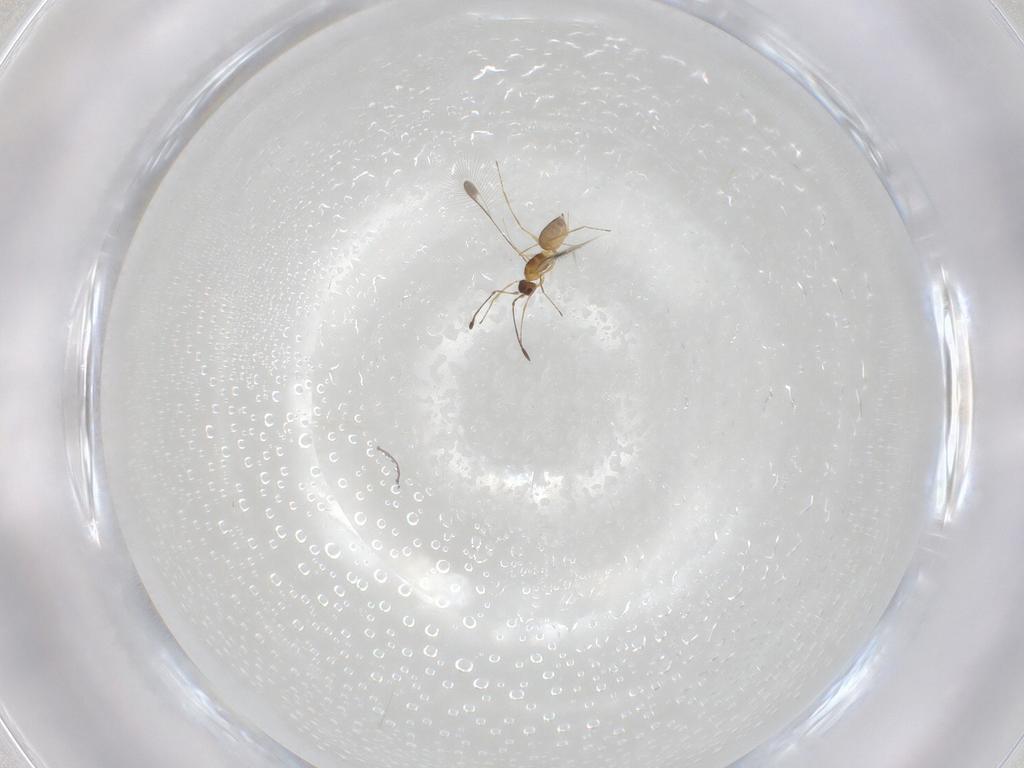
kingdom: Animalia
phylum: Arthropoda
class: Insecta
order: Hymenoptera
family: Mymaridae
